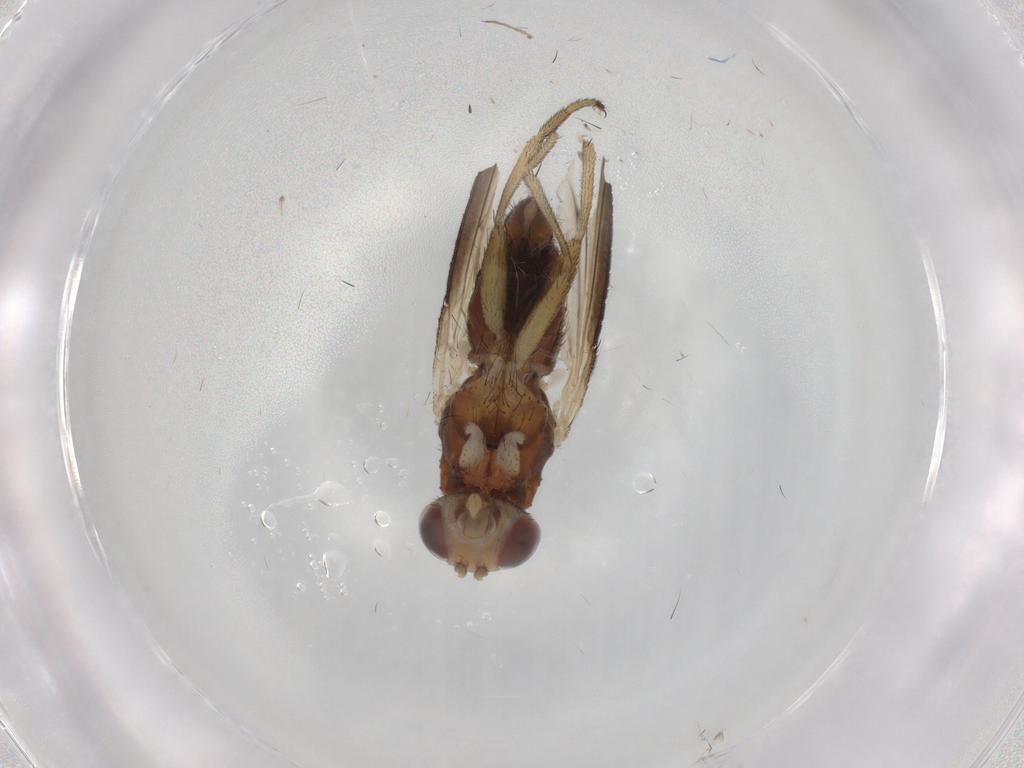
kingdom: Animalia
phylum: Arthropoda
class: Insecta
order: Diptera
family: Heleomyzidae
